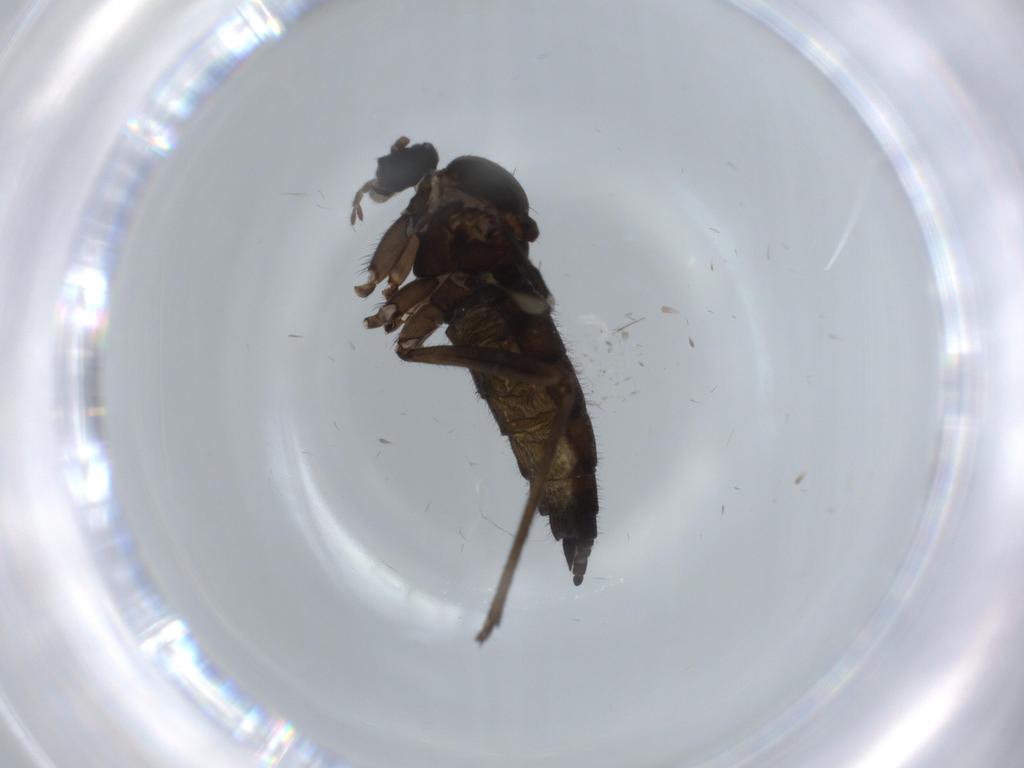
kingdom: Animalia
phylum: Arthropoda
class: Insecta
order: Diptera
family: Sciaridae
